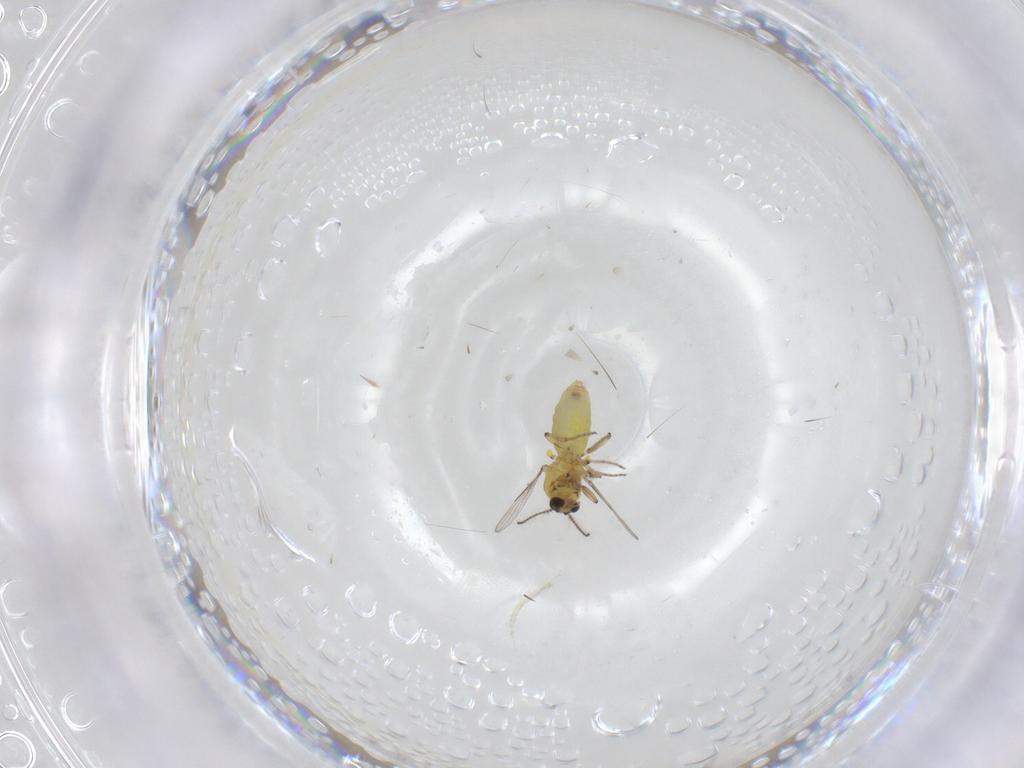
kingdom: Animalia
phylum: Arthropoda
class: Insecta
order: Diptera
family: Ceratopogonidae
